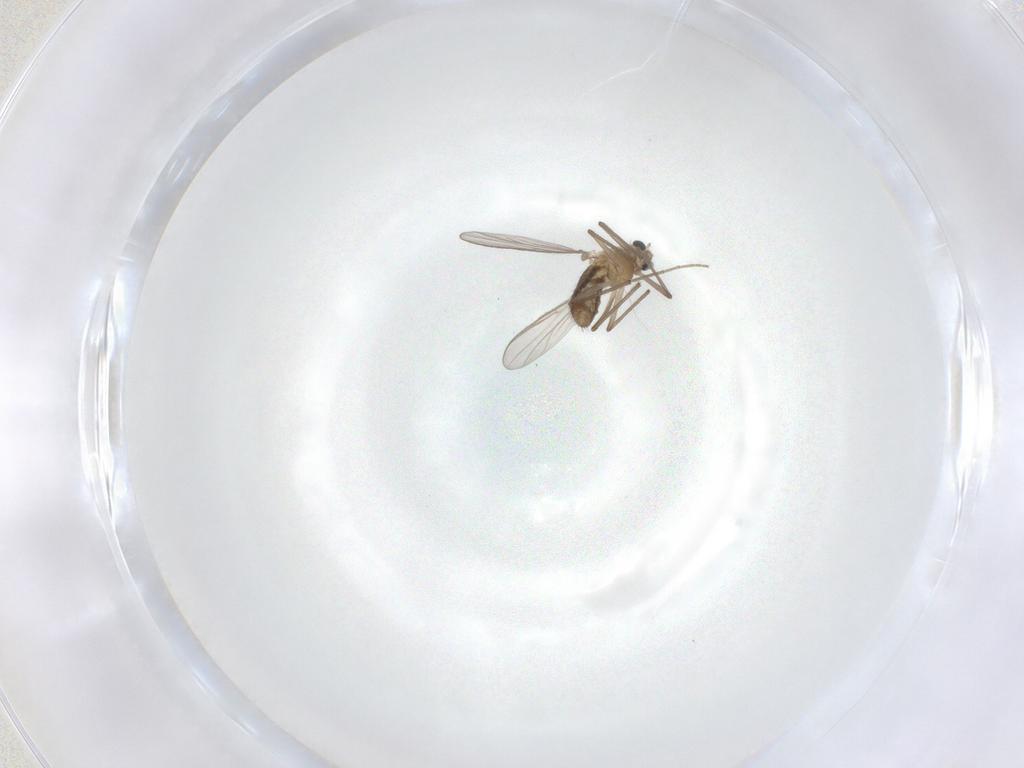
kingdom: Animalia
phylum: Arthropoda
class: Insecta
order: Diptera
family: Chironomidae
